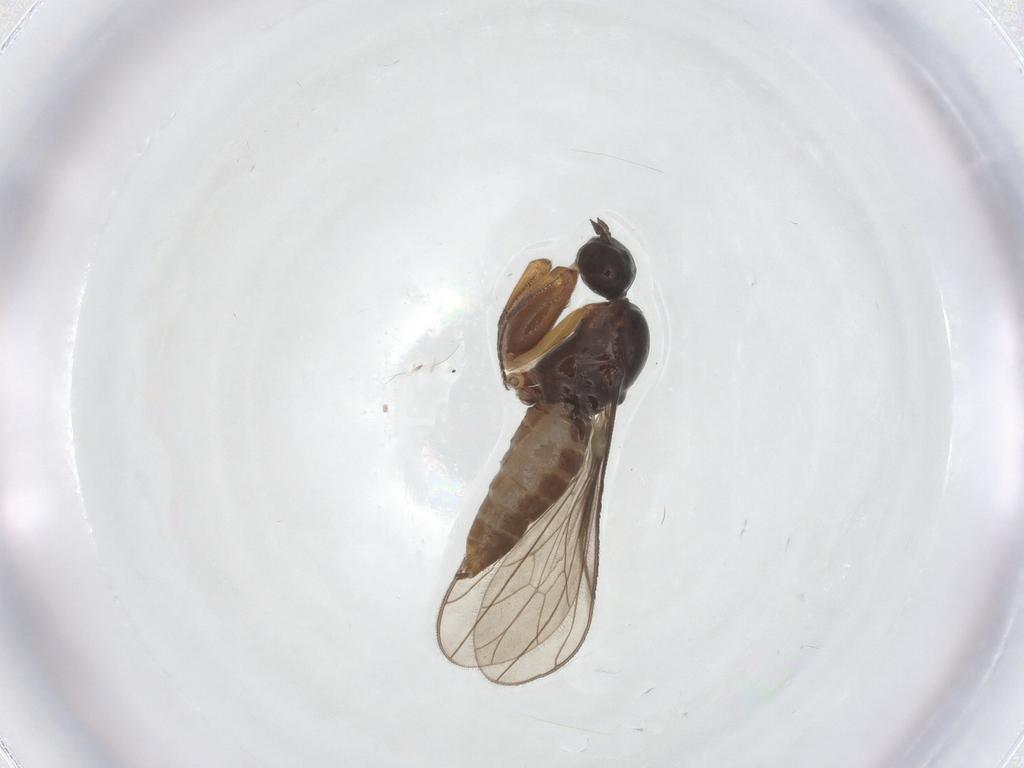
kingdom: Animalia
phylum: Arthropoda
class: Insecta
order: Diptera
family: Empididae
